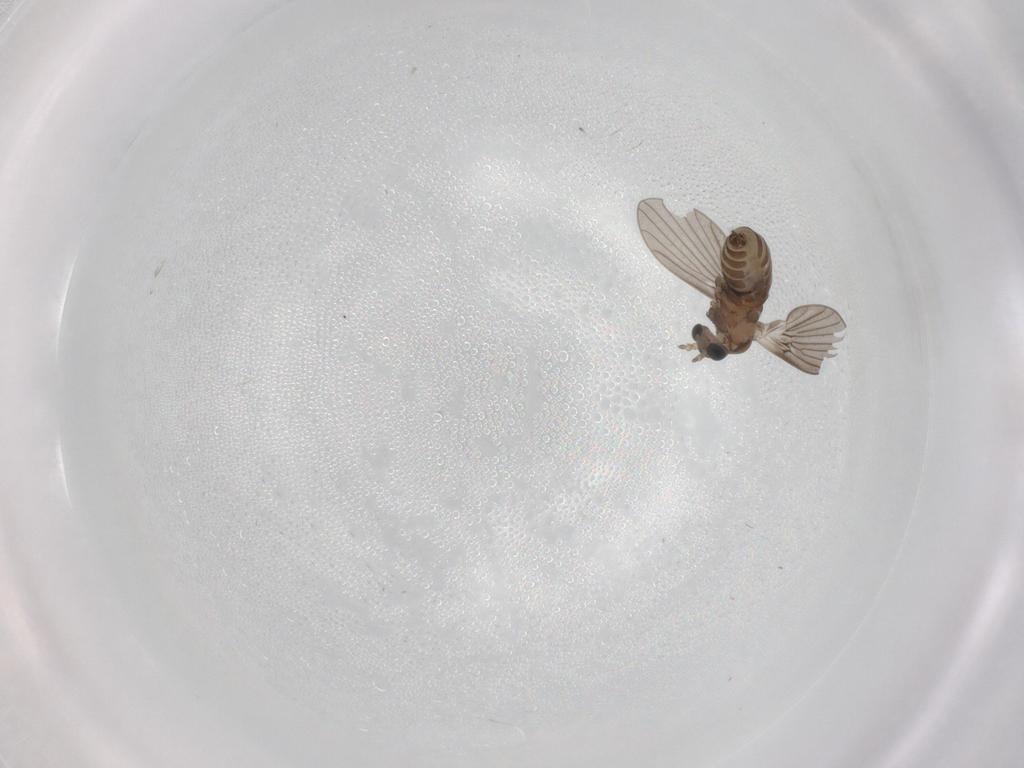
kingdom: Animalia
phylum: Arthropoda
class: Insecta
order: Diptera
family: Psychodidae
